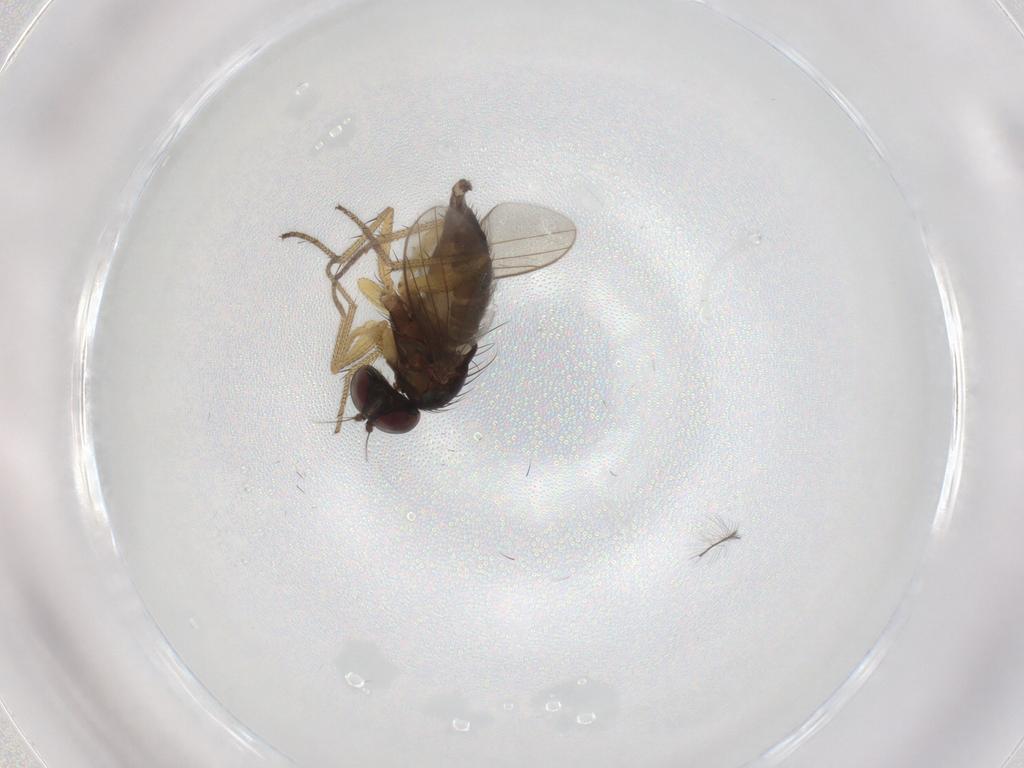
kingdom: Animalia
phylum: Arthropoda
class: Insecta
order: Diptera
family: Dolichopodidae
